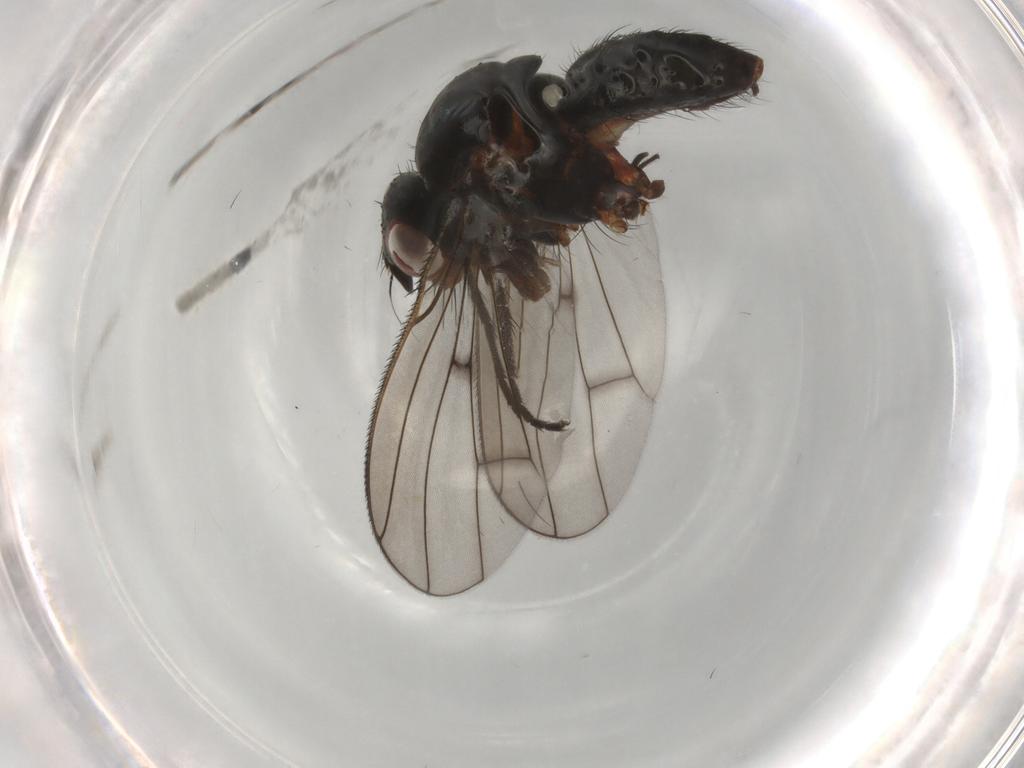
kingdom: Animalia
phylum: Arthropoda
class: Insecta
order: Diptera
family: Sciaridae
